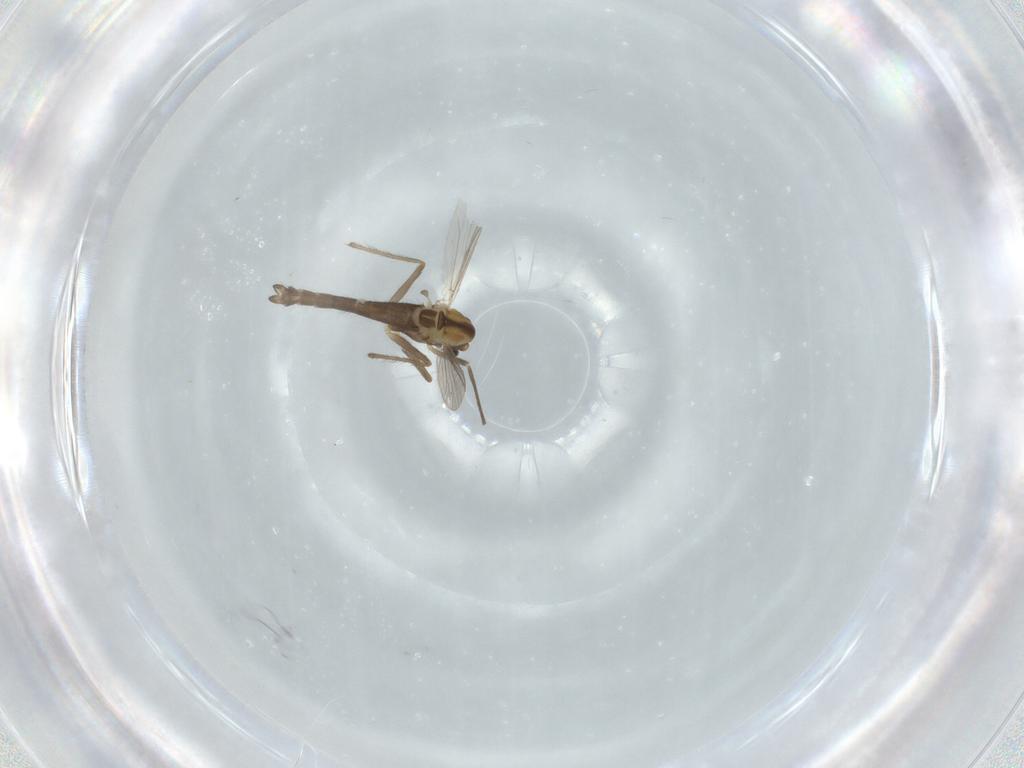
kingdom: Animalia
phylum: Arthropoda
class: Insecta
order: Diptera
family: Chironomidae
